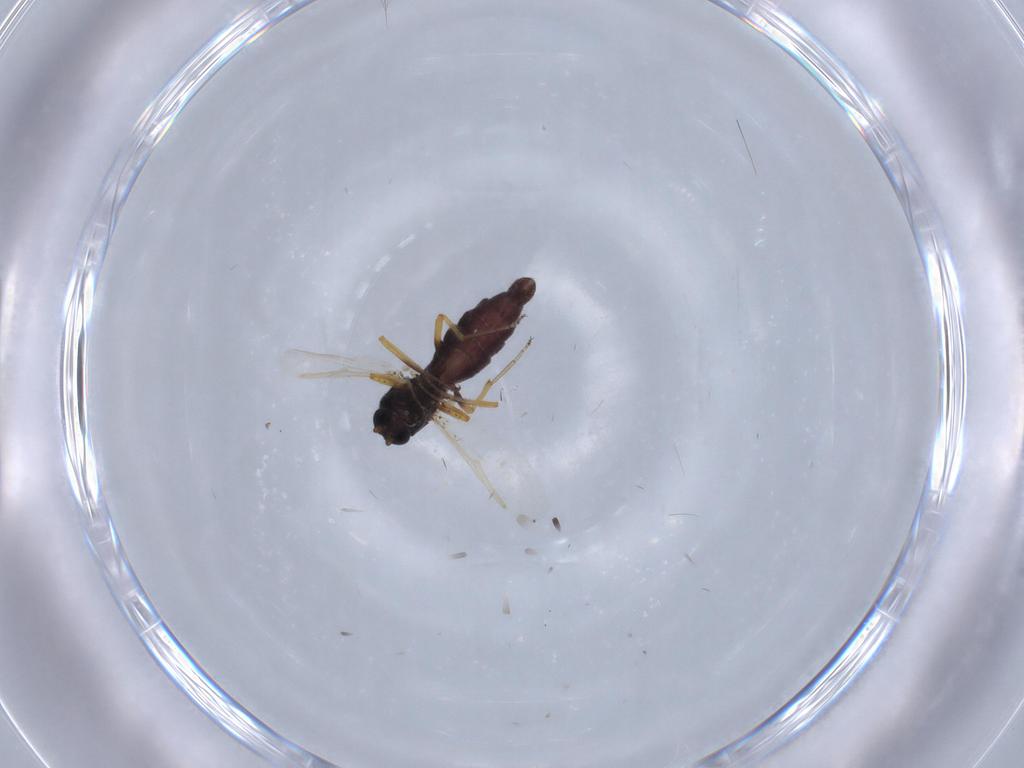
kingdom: Animalia
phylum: Arthropoda
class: Insecta
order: Diptera
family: Ceratopogonidae
